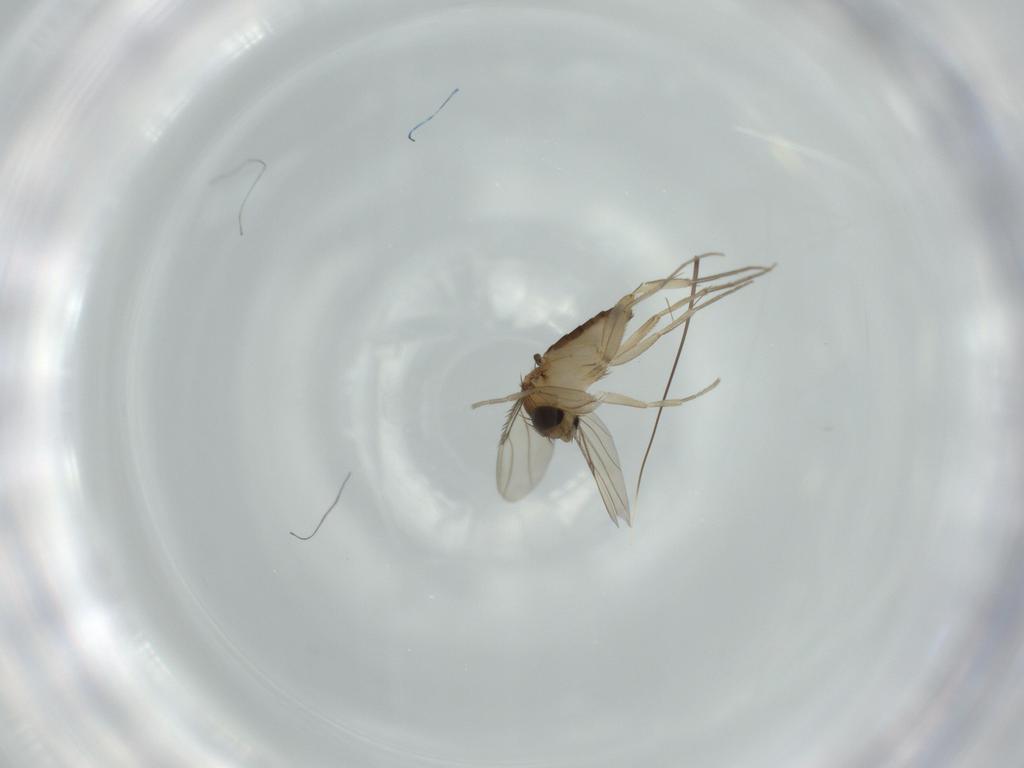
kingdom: Animalia
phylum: Arthropoda
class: Insecta
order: Diptera
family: Phoridae
